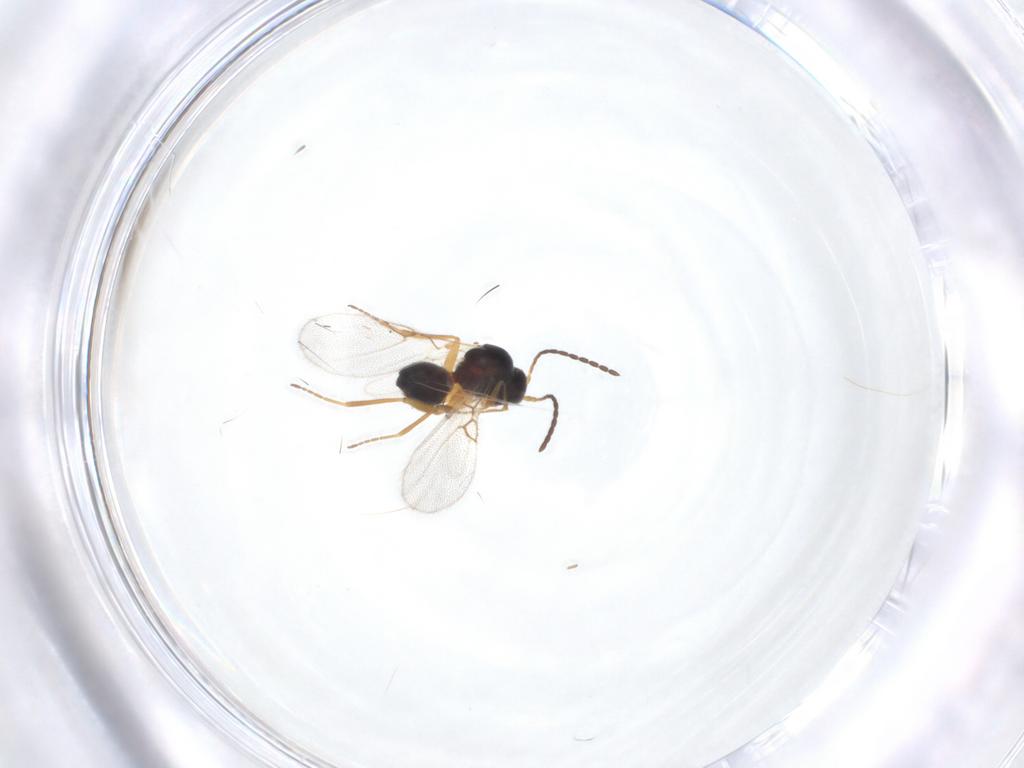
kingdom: Animalia
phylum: Arthropoda
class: Insecta
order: Hymenoptera
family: Figitidae
